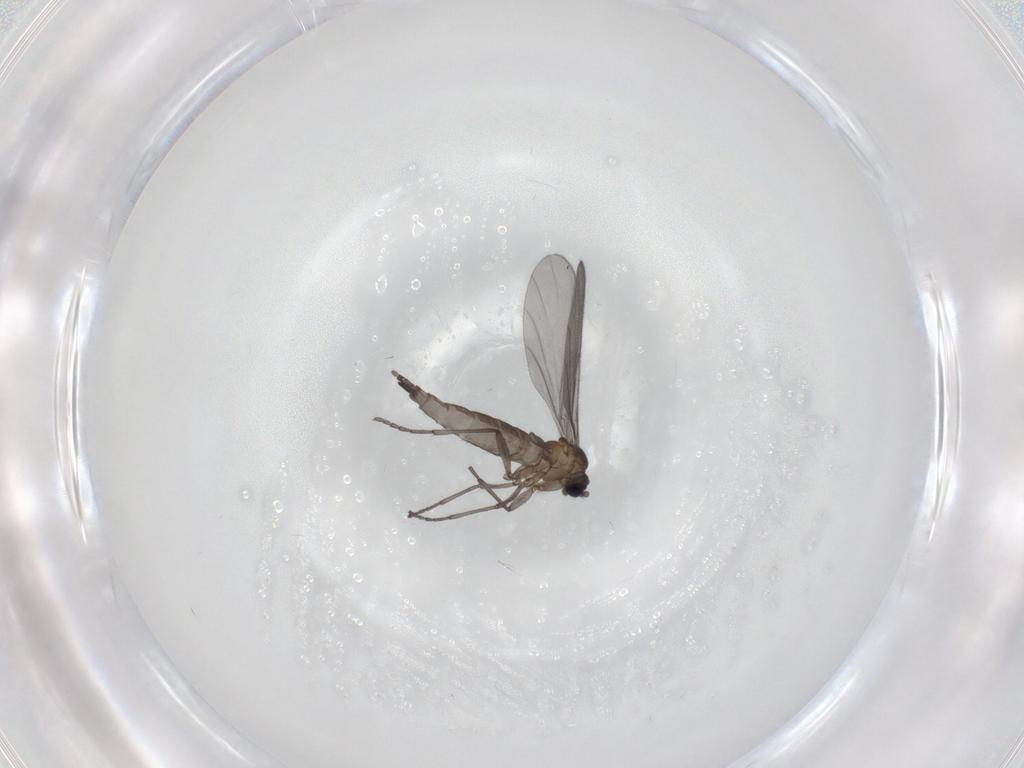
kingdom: Animalia
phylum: Arthropoda
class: Insecta
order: Diptera
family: Sciaridae
